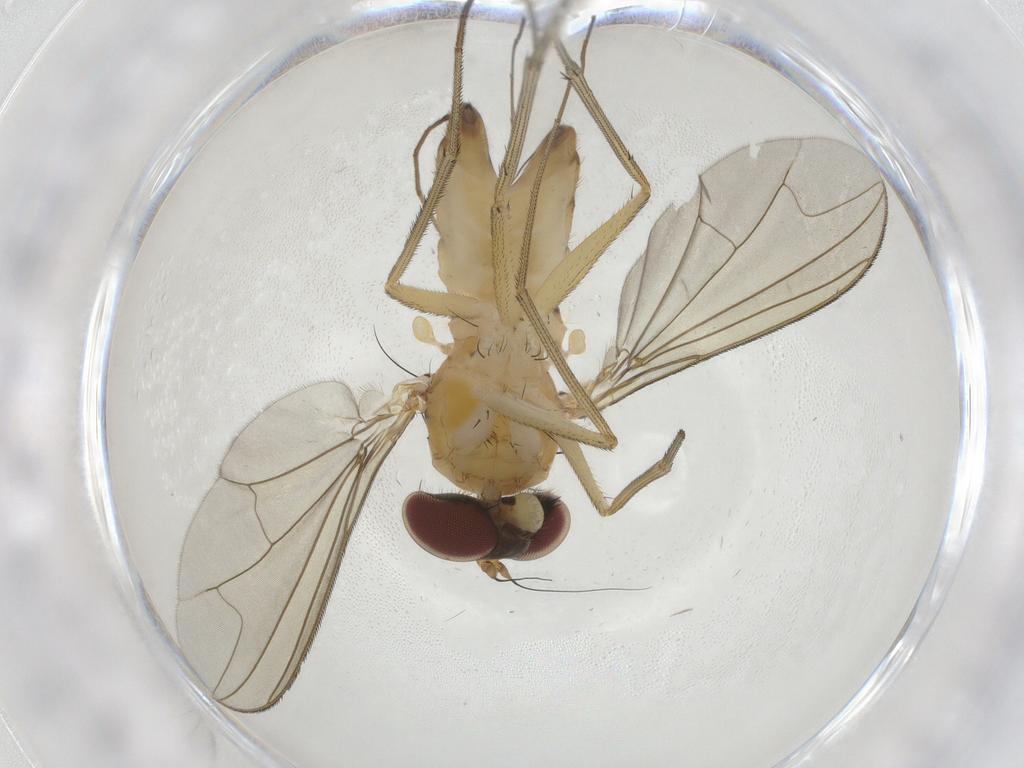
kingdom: Animalia
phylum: Arthropoda
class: Insecta
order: Diptera
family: Dolichopodidae
